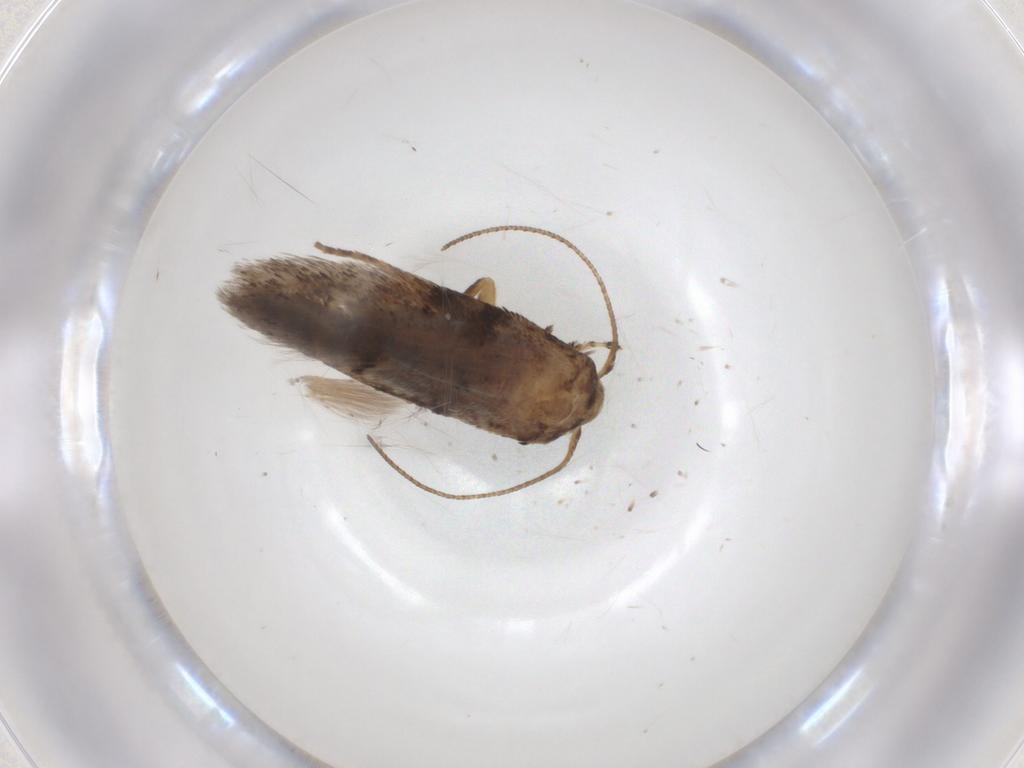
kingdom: Animalia
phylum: Arthropoda
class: Insecta
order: Lepidoptera
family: Gelechiidae
